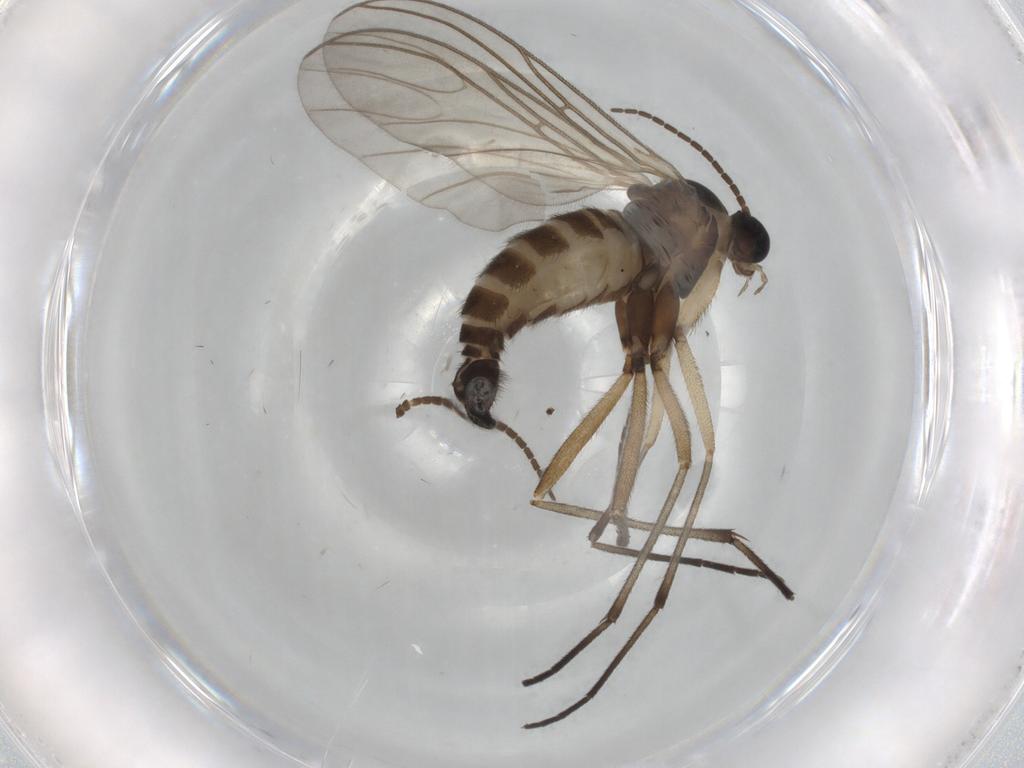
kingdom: Animalia
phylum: Arthropoda
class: Insecta
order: Diptera
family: Sciaridae
